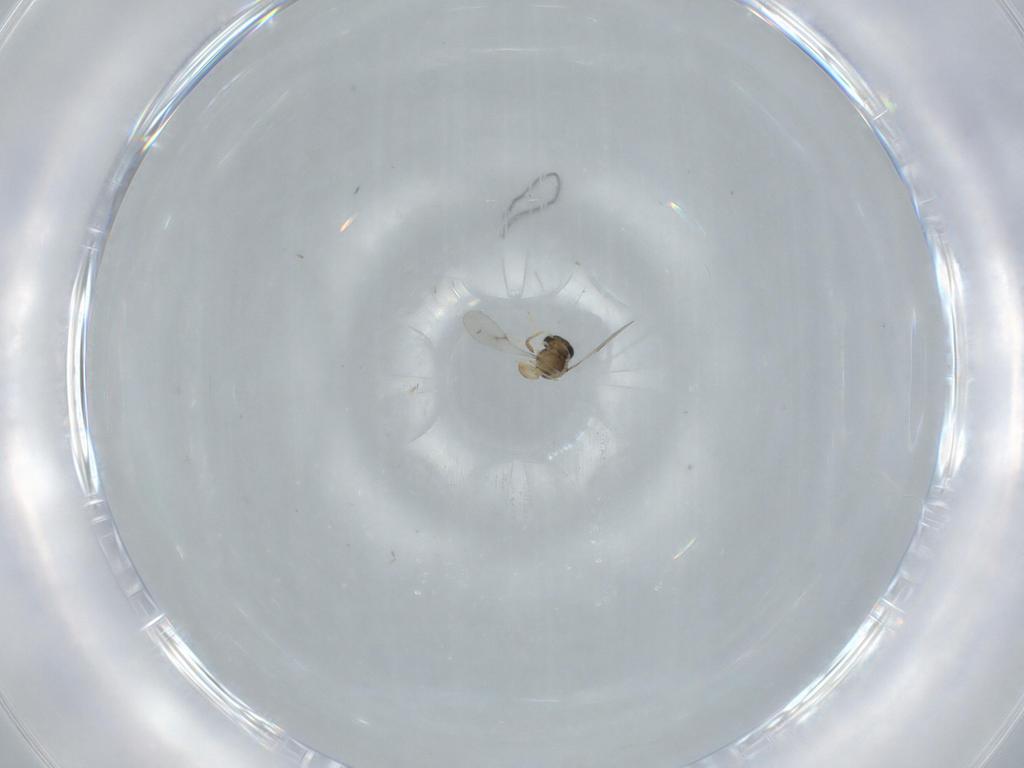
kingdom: Animalia
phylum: Arthropoda
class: Insecta
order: Hymenoptera
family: Scelionidae
